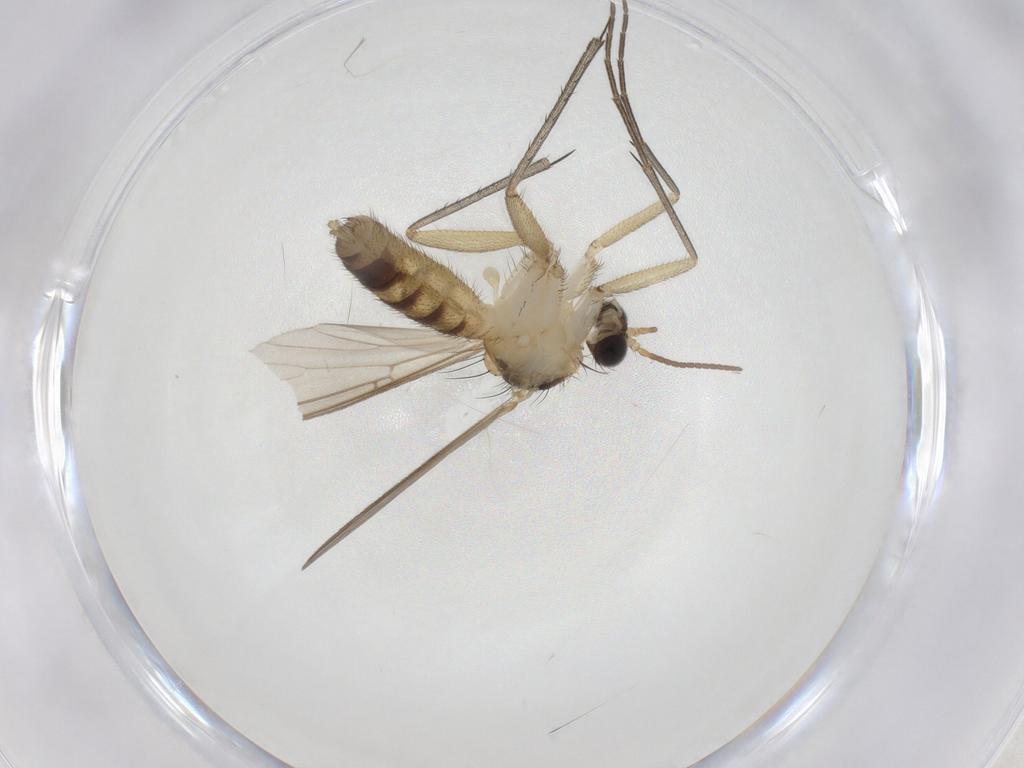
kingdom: Animalia
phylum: Arthropoda
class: Insecta
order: Diptera
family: Mycetophilidae
